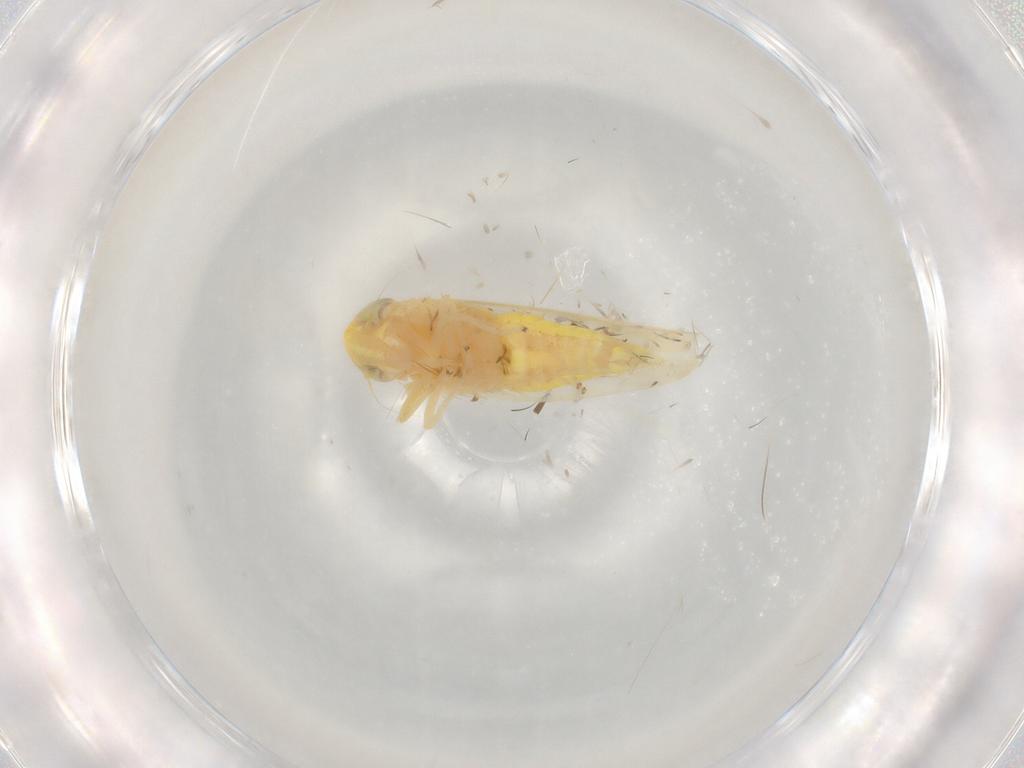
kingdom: Animalia
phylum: Arthropoda
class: Insecta
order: Hemiptera
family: Cicadellidae
